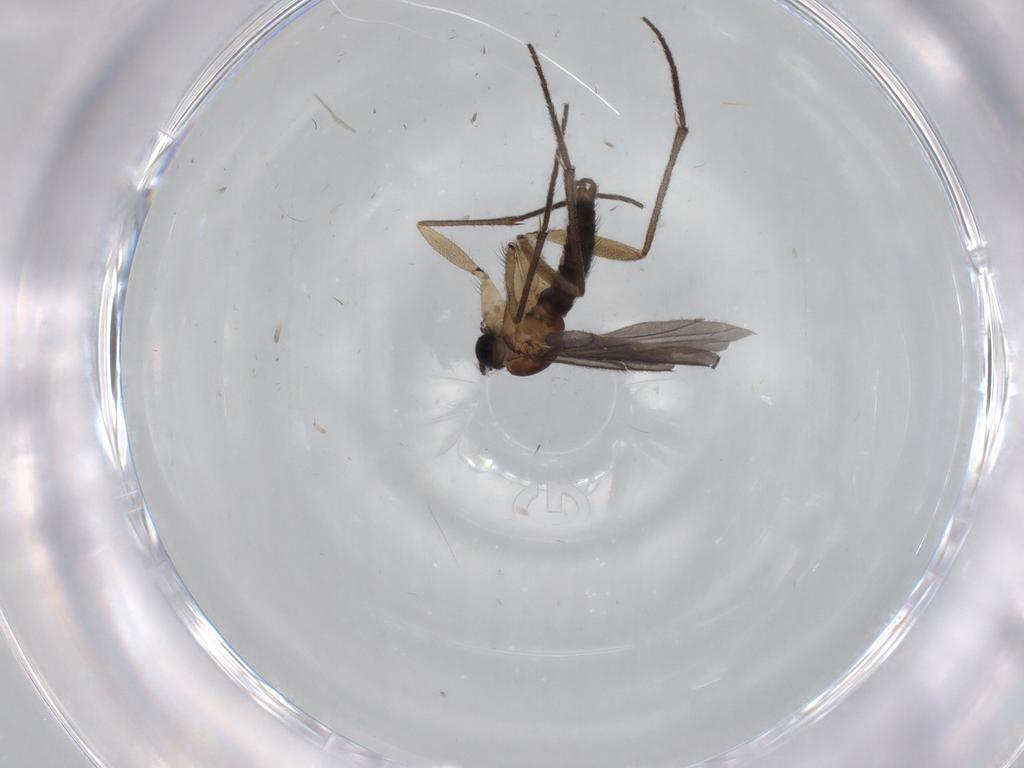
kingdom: Animalia
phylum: Arthropoda
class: Insecta
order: Diptera
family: Sciaridae
